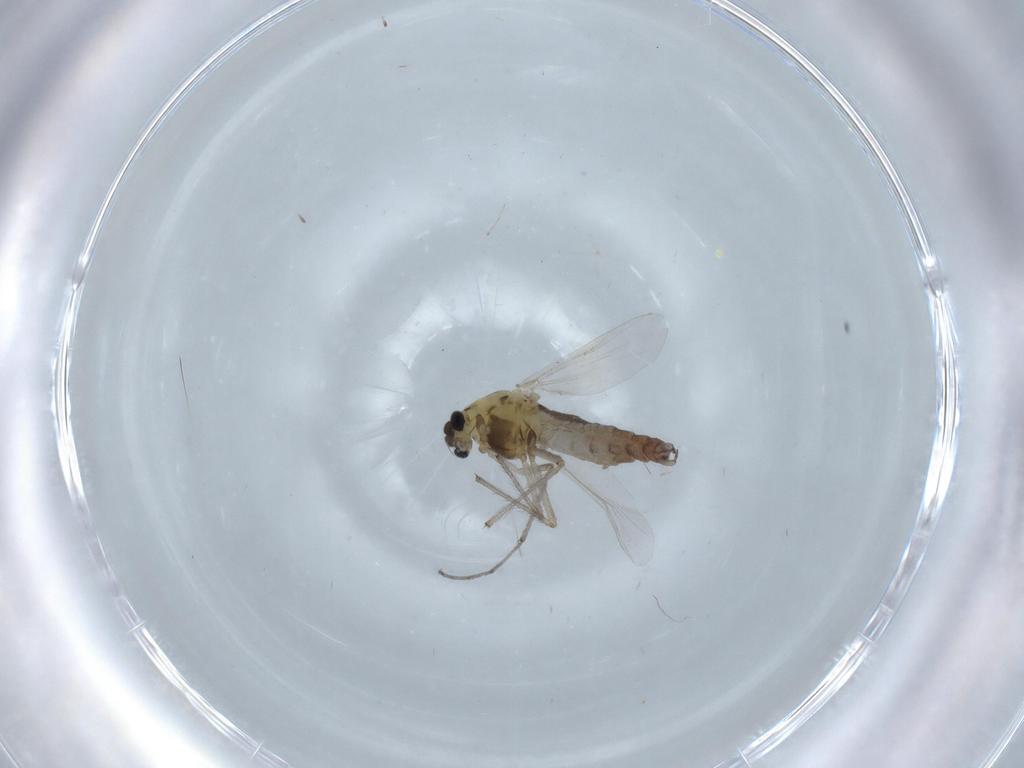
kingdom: Animalia
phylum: Arthropoda
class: Insecta
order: Diptera
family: Chironomidae
